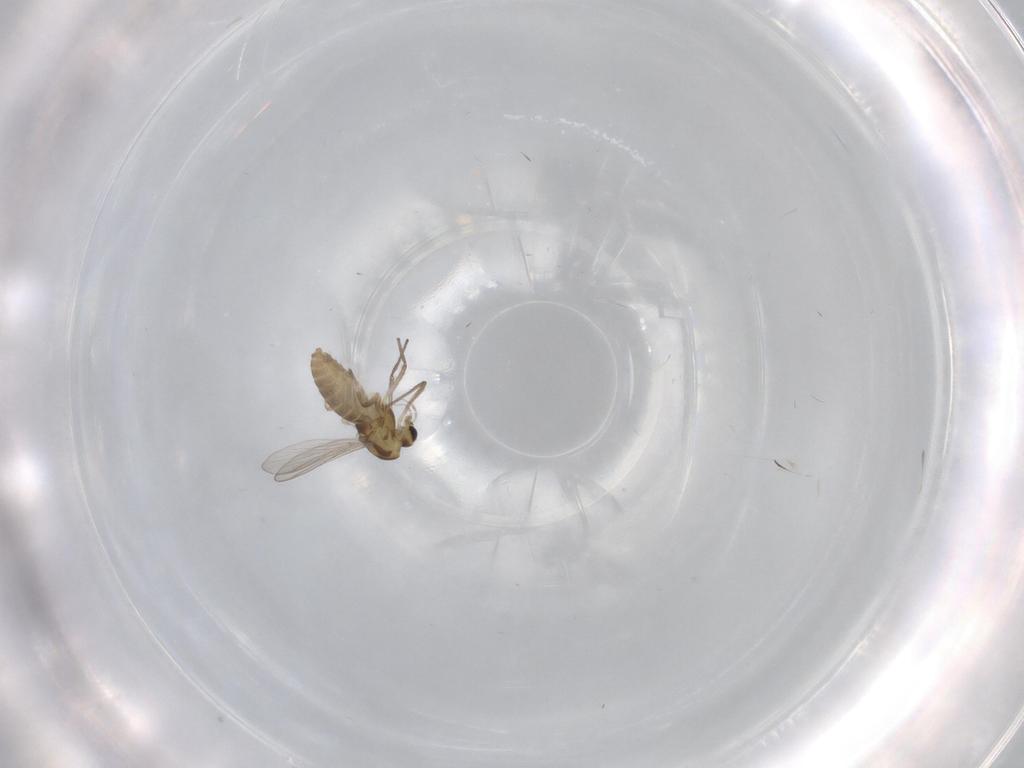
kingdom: Animalia
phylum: Arthropoda
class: Insecta
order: Diptera
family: Chironomidae
